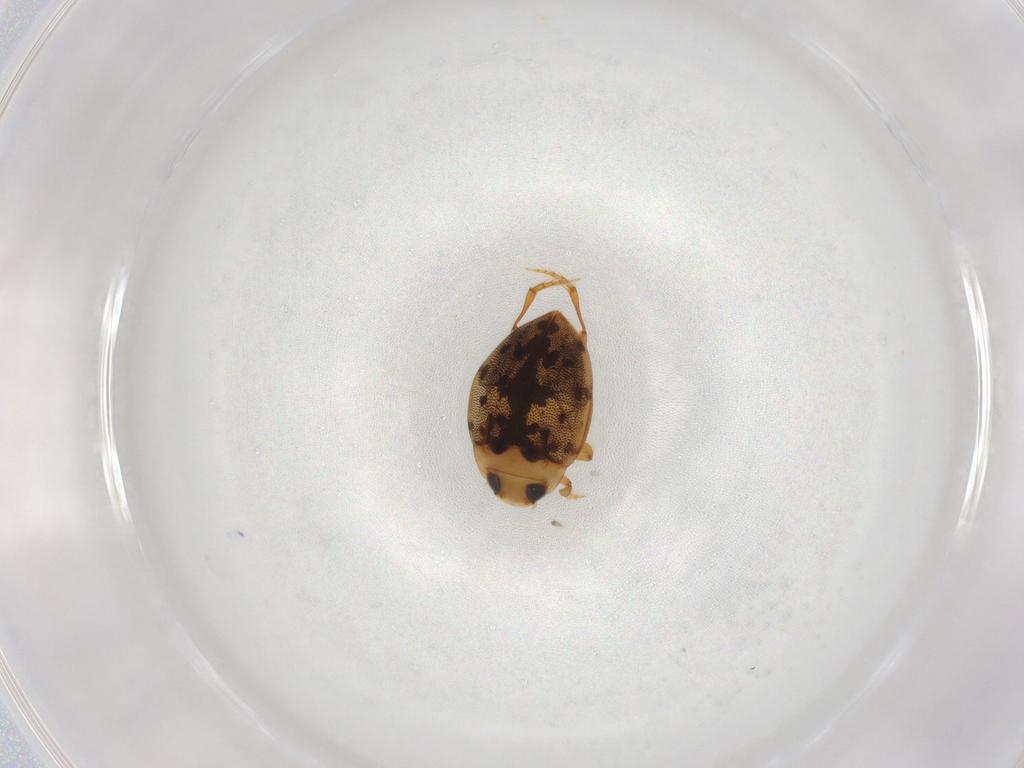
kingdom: Animalia
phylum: Arthropoda
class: Insecta
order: Coleoptera
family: Dytiscidae
